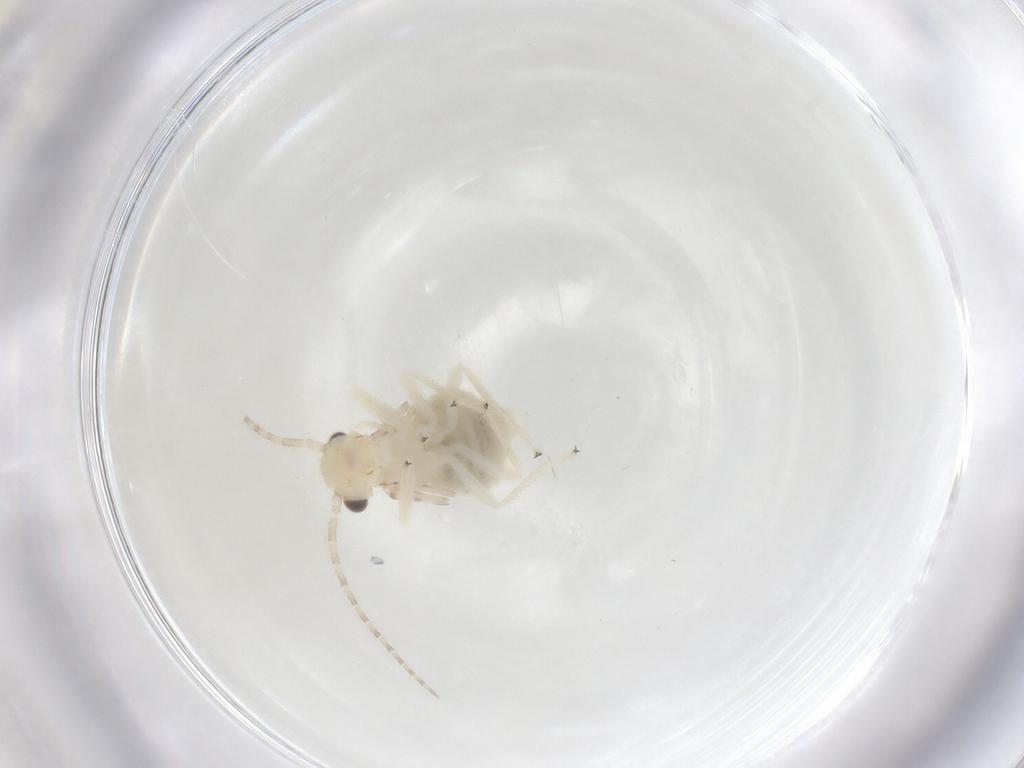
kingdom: Animalia
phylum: Arthropoda
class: Insecta
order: Psocodea
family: Amphipsocidae
